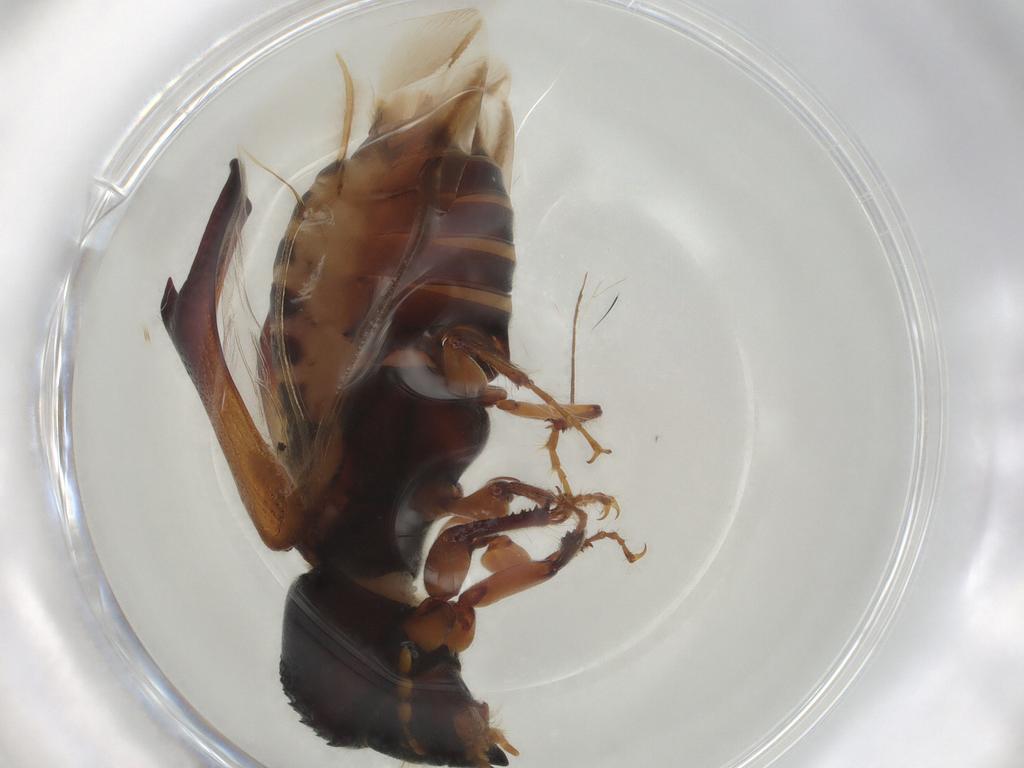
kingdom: Animalia
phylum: Arthropoda
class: Insecta
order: Coleoptera
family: Bostrichidae
